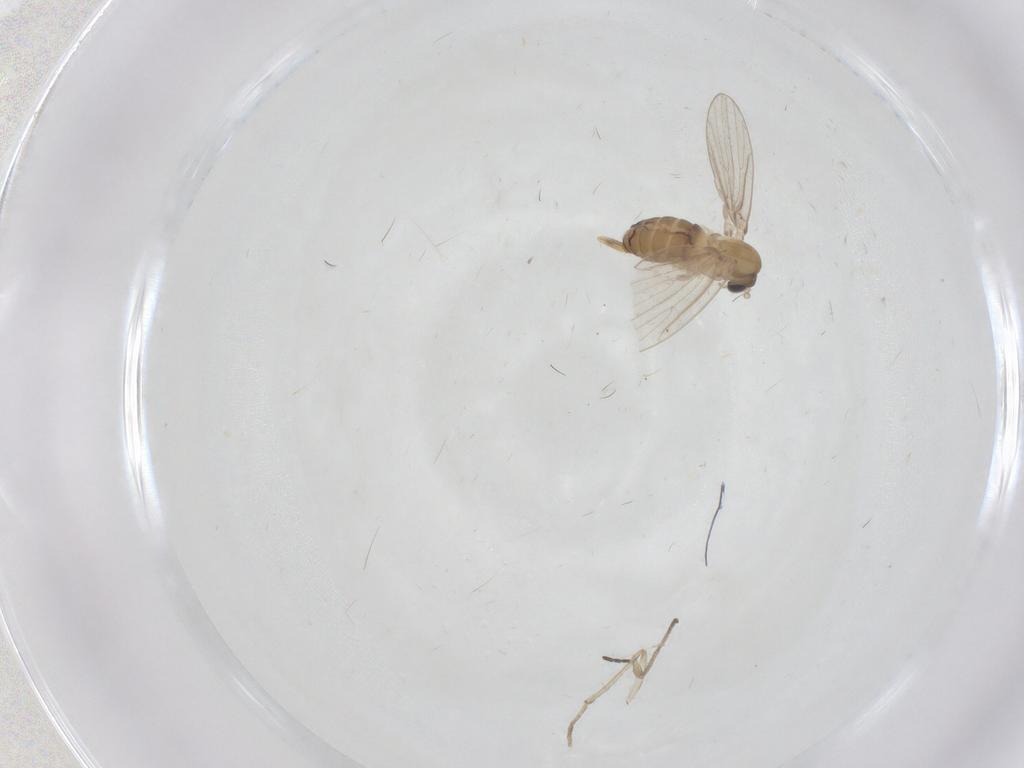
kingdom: Animalia
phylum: Arthropoda
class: Insecta
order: Diptera
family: Psychodidae
